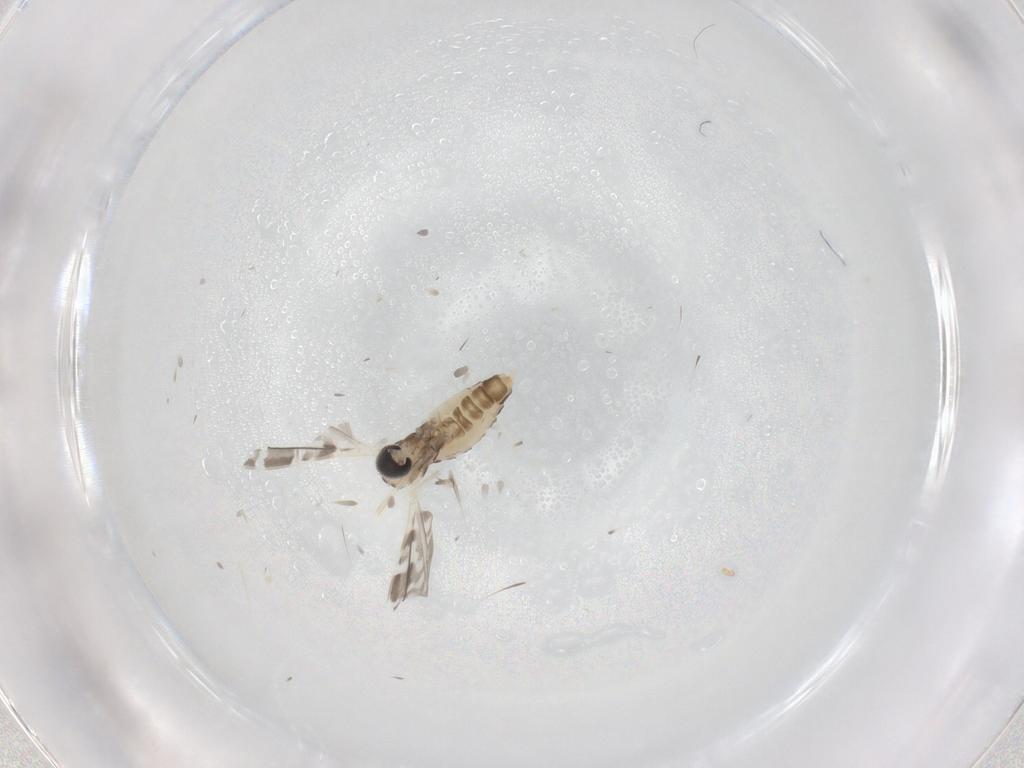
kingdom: Animalia
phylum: Arthropoda
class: Insecta
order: Diptera
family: Cecidomyiidae
